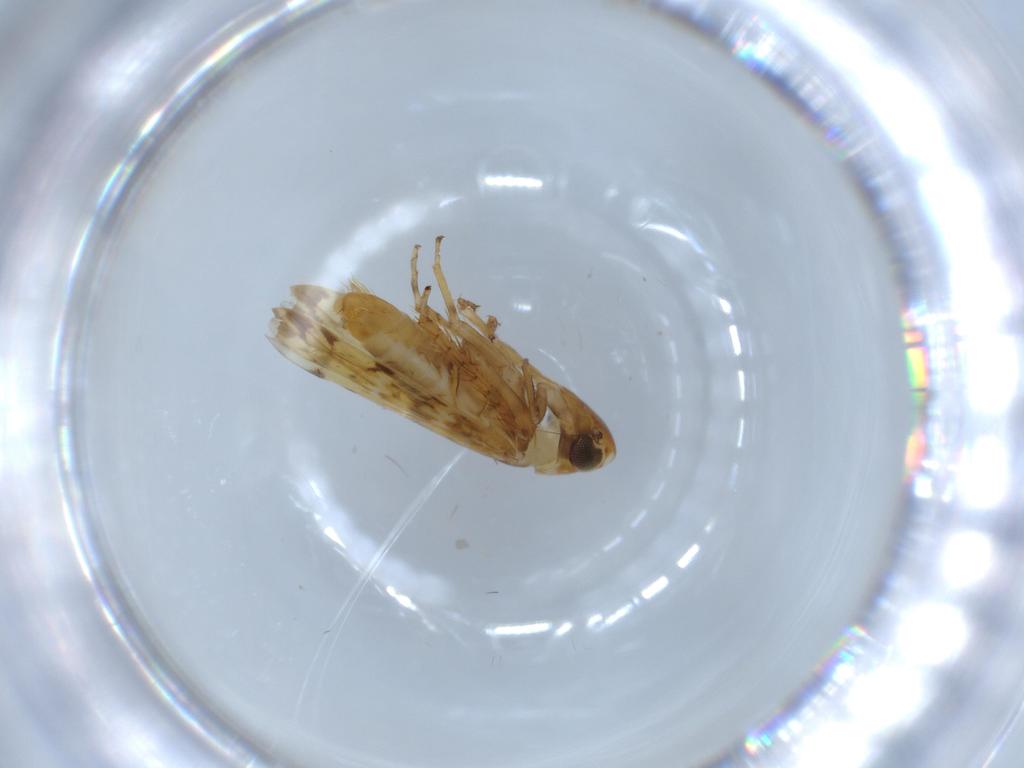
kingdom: Animalia
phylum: Arthropoda
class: Insecta
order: Hemiptera
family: Cicadellidae
